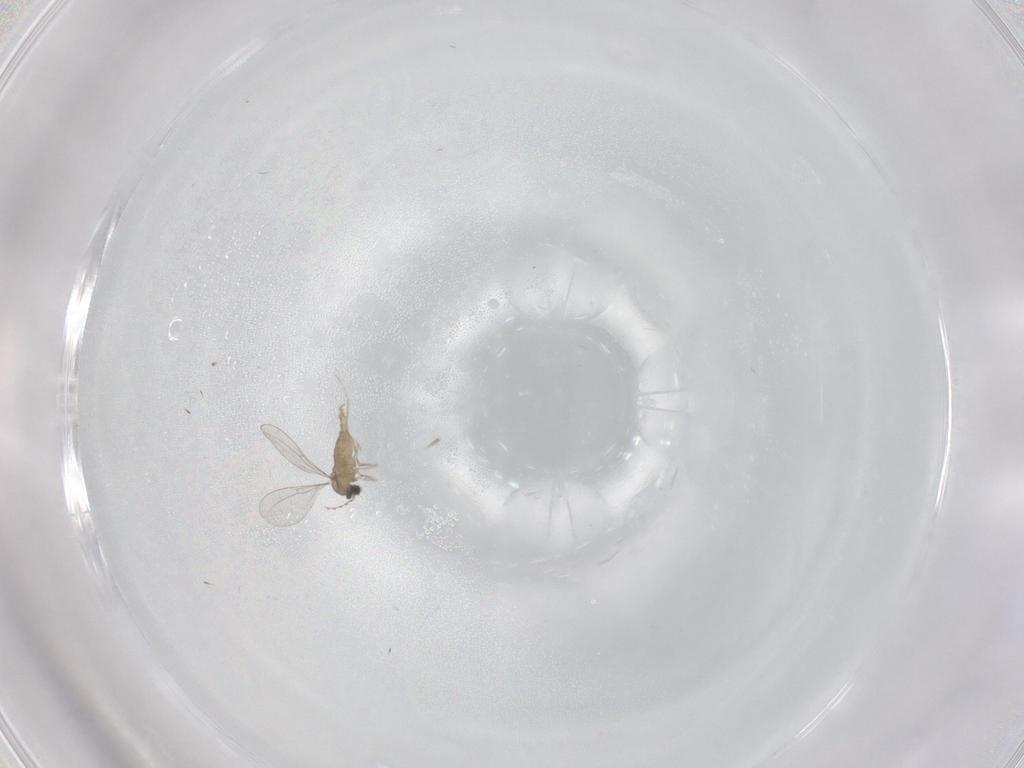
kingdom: Animalia
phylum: Arthropoda
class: Insecta
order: Diptera
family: Cecidomyiidae
